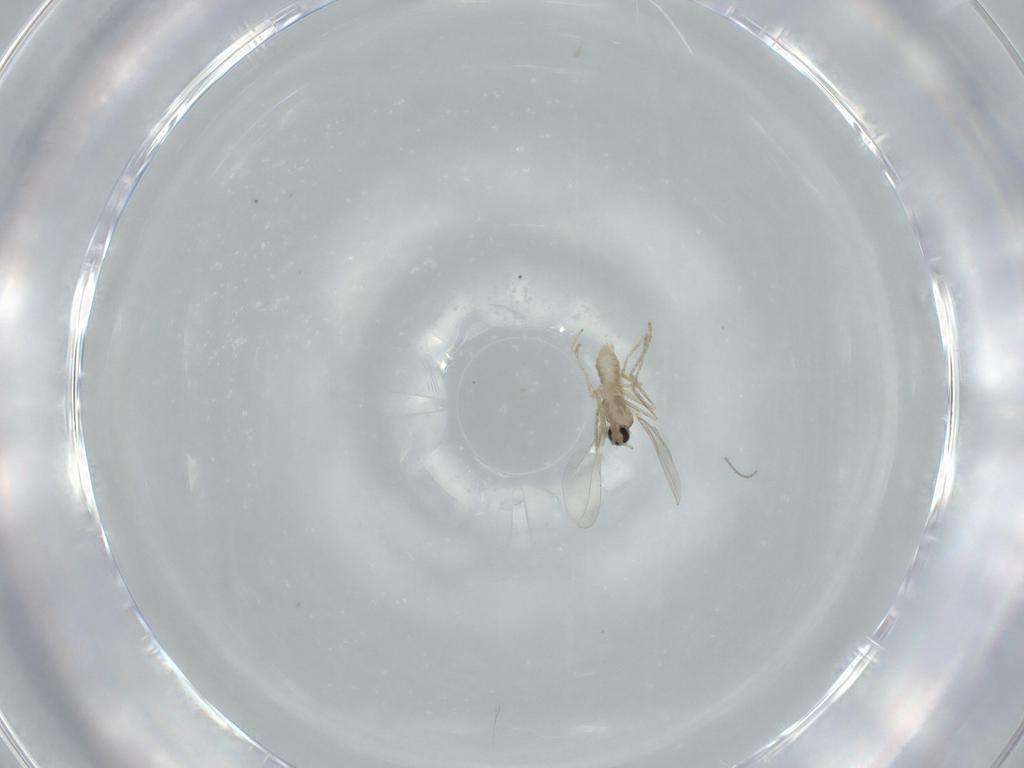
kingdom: Animalia
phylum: Arthropoda
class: Insecta
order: Diptera
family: Cecidomyiidae
